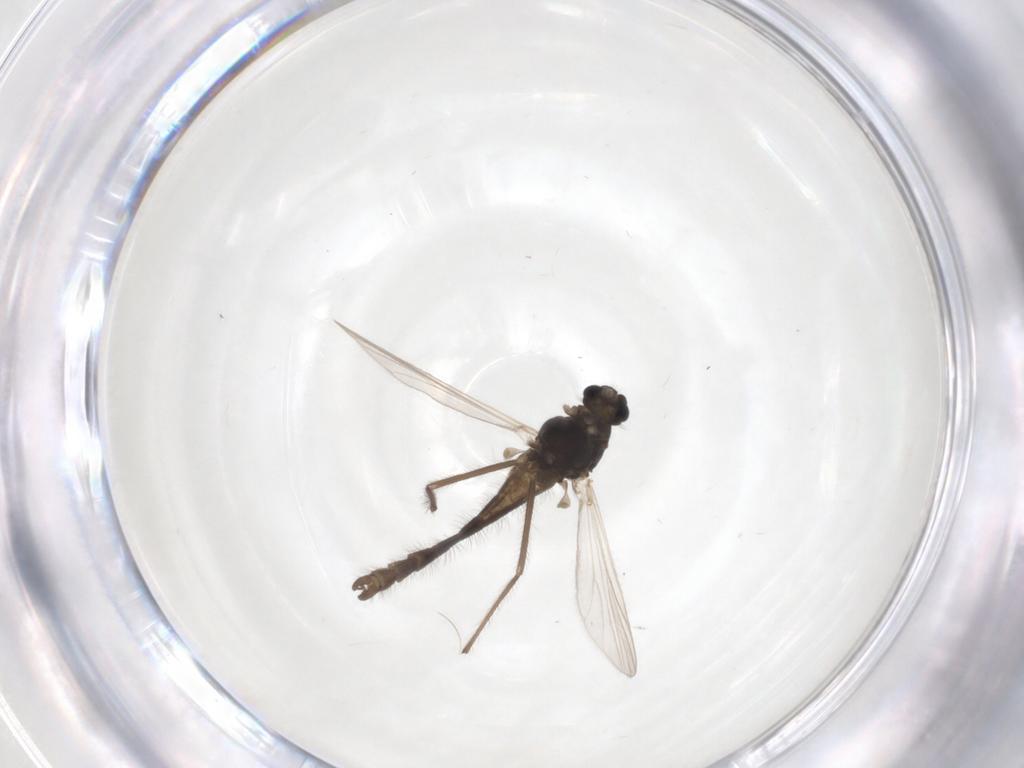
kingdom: Animalia
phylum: Arthropoda
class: Insecta
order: Diptera
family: Chironomidae
